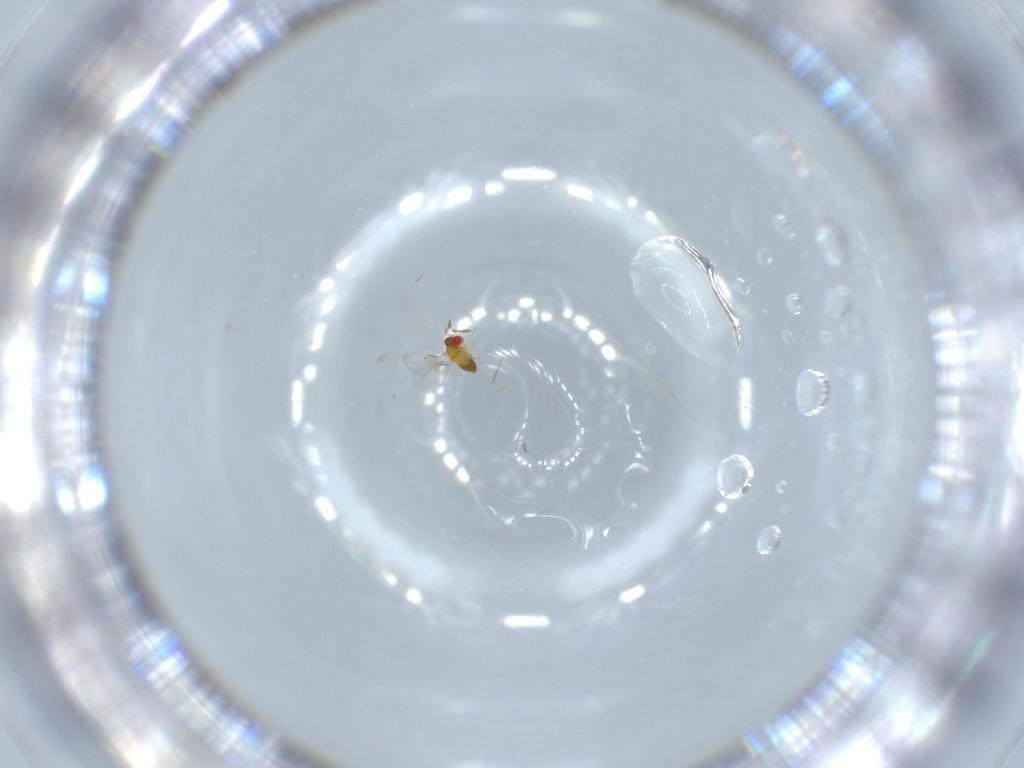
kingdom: Animalia
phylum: Arthropoda
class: Insecta
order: Hymenoptera
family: Trichogrammatidae
